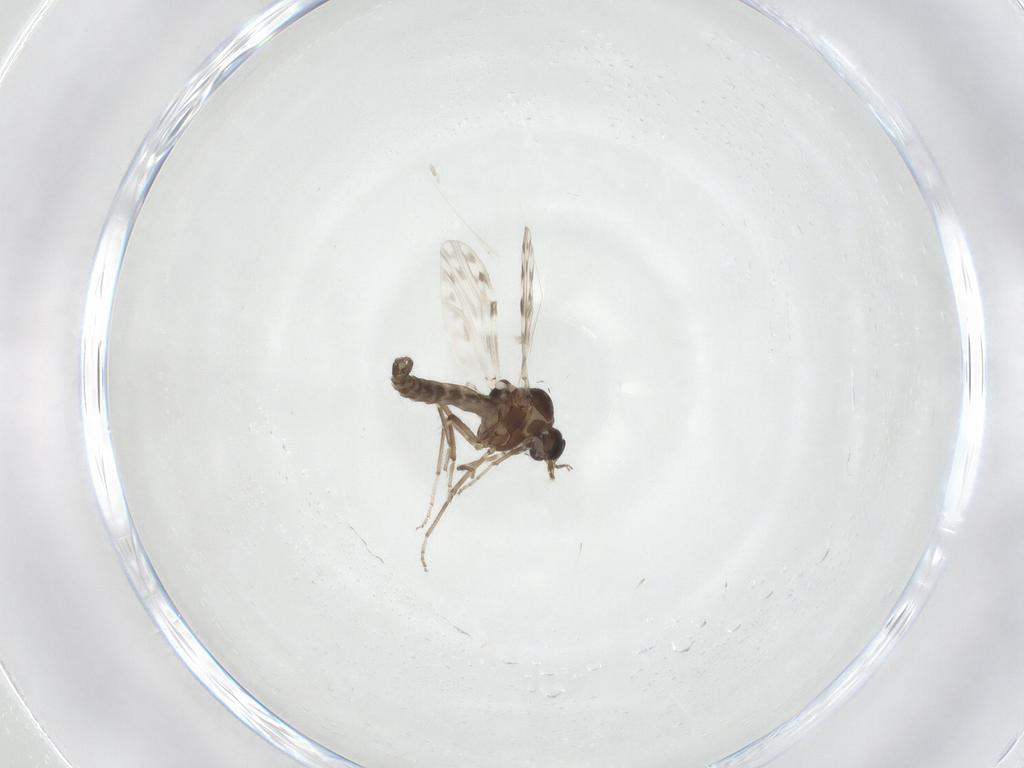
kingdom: Animalia
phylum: Arthropoda
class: Insecta
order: Diptera
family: Ceratopogonidae
